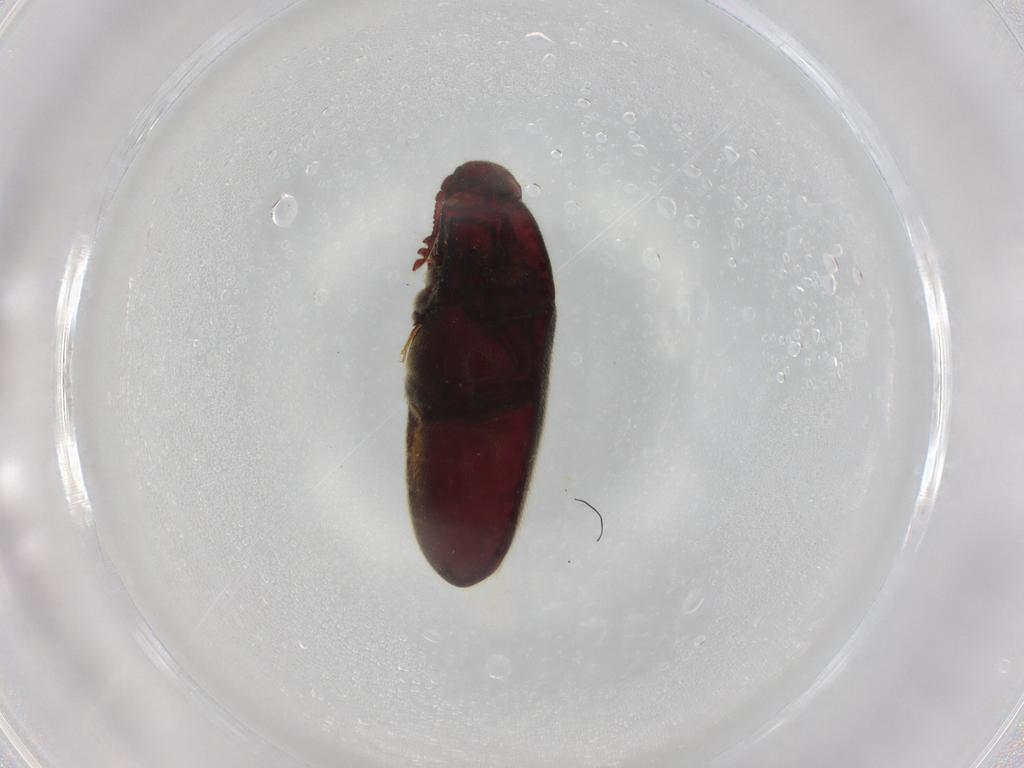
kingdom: Animalia
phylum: Arthropoda
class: Insecta
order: Coleoptera
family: Throscidae
